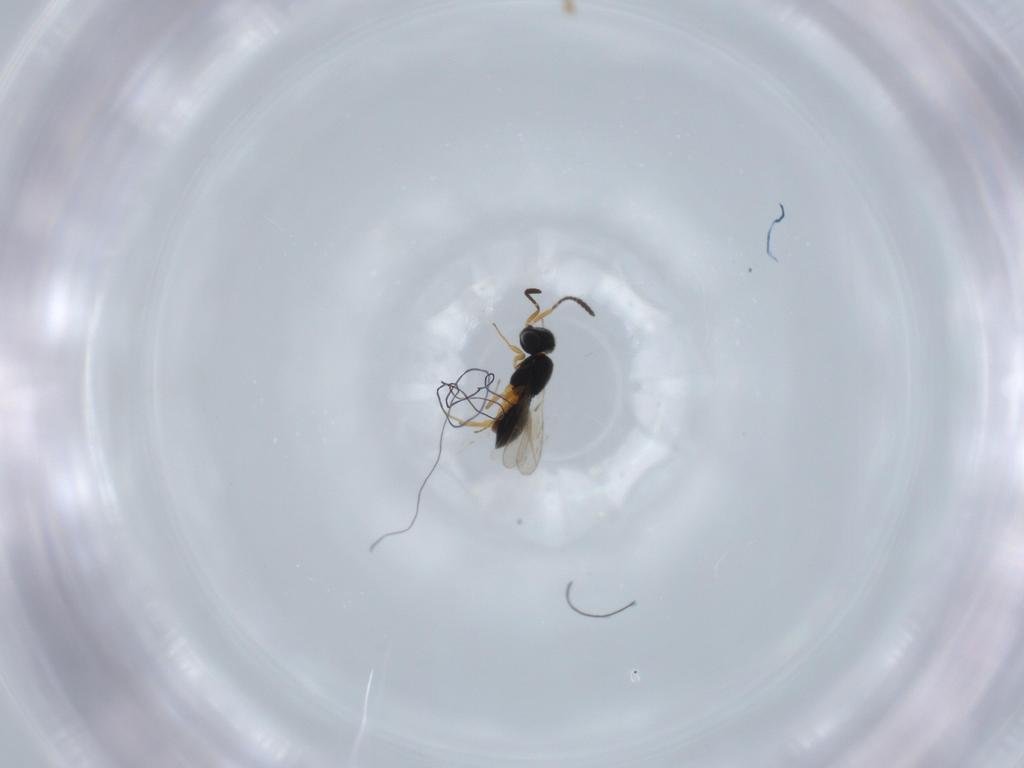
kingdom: Animalia
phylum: Arthropoda
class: Insecta
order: Hymenoptera
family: Scelionidae
